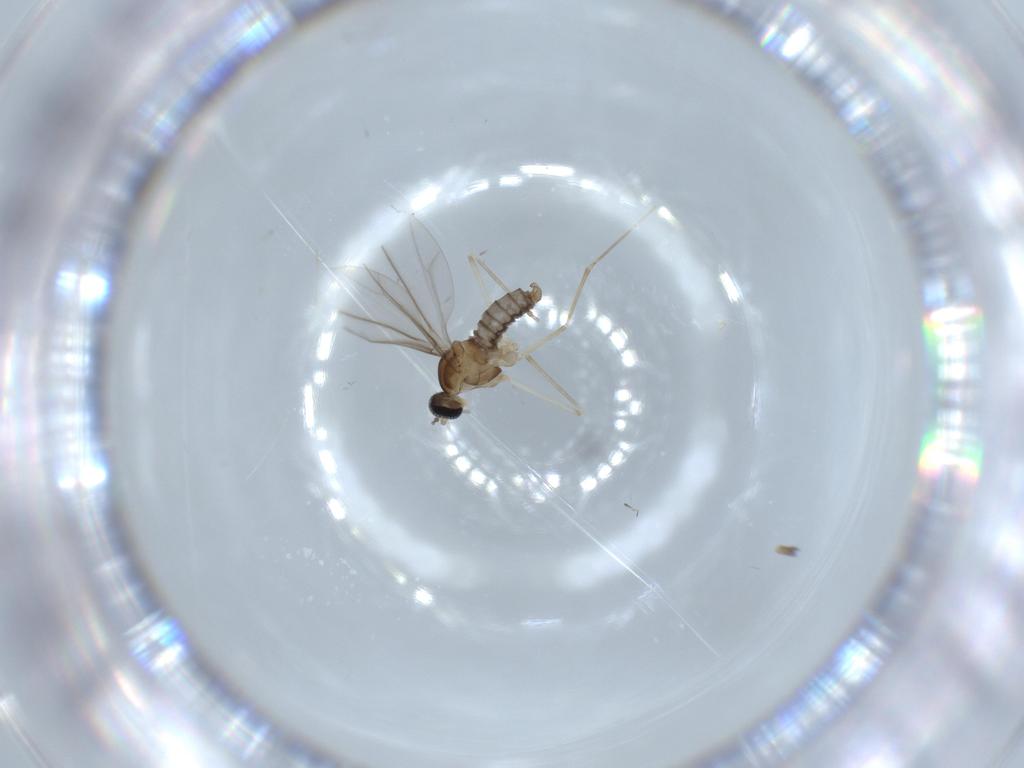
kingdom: Animalia
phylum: Arthropoda
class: Insecta
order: Diptera
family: Cecidomyiidae
